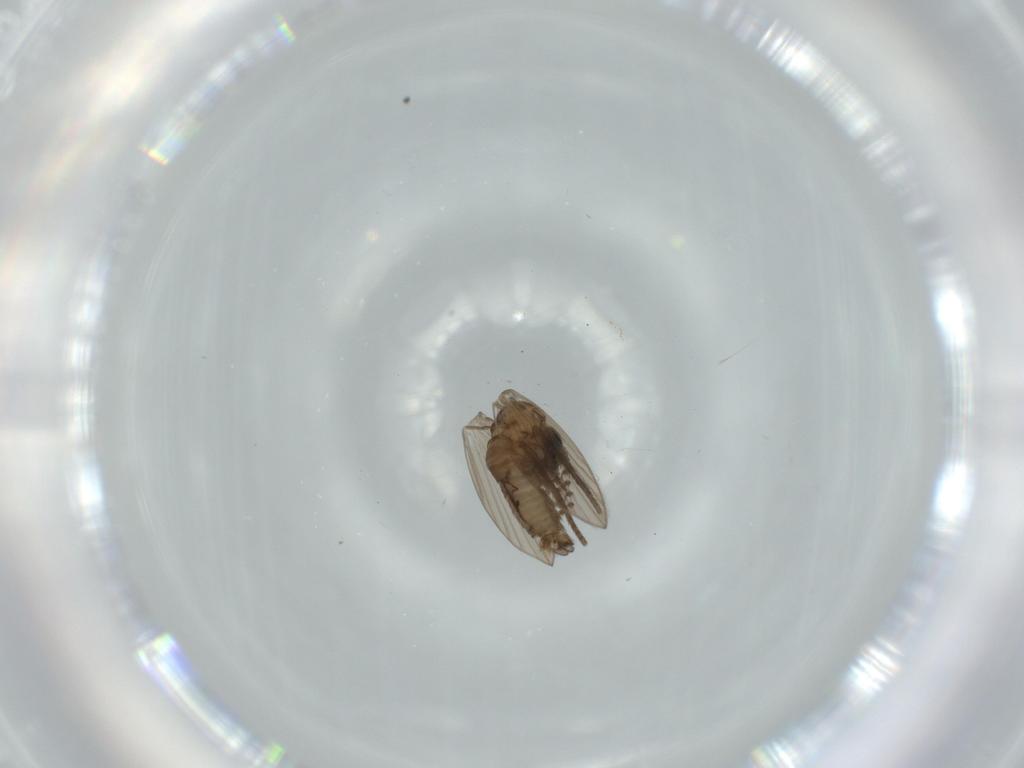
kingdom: Animalia
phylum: Arthropoda
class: Insecta
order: Diptera
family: Psychodidae
